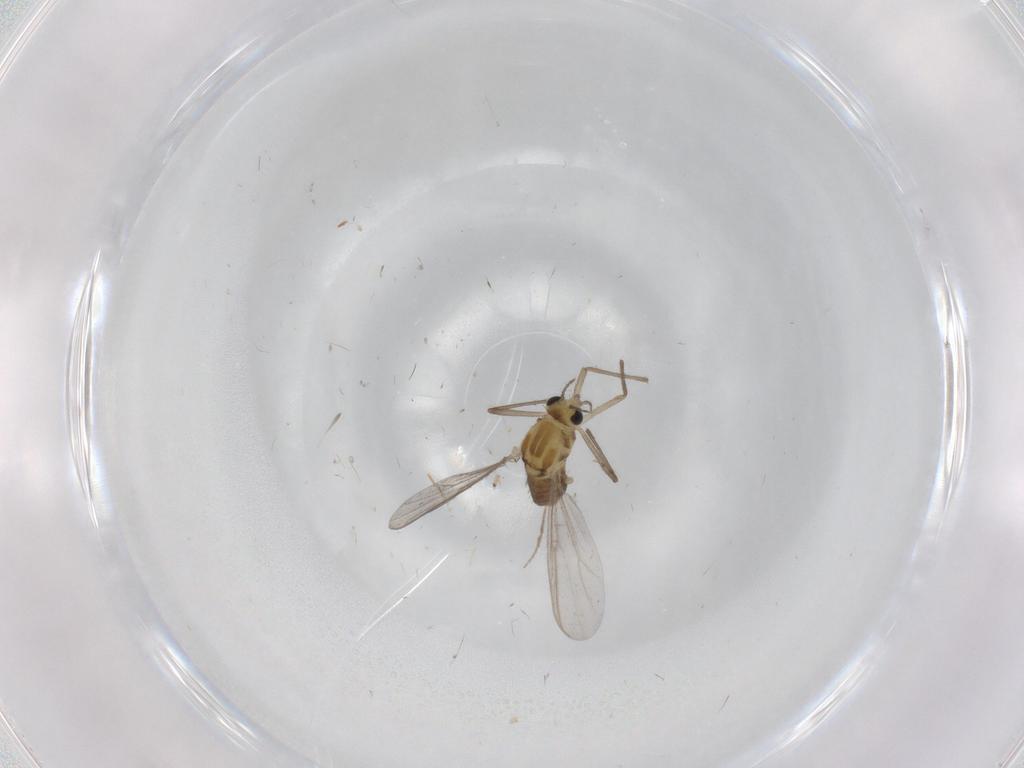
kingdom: Animalia
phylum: Arthropoda
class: Insecta
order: Diptera
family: Chironomidae
